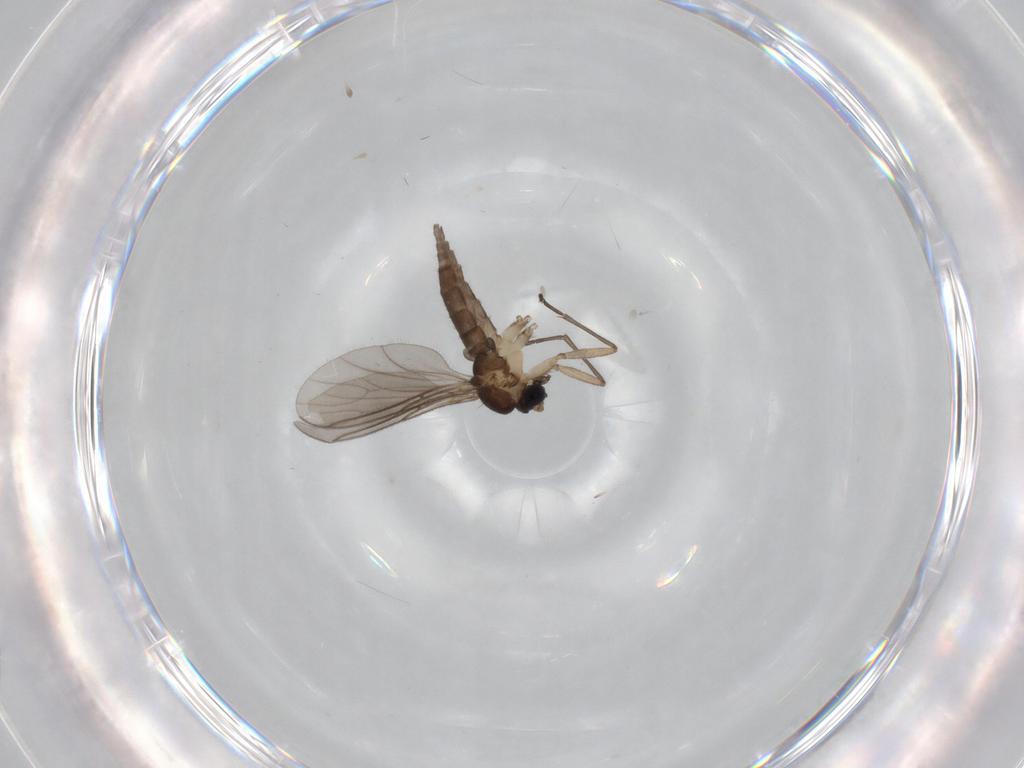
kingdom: Animalia
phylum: Arthropoda
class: Insecta
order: Diptera
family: Sciaridae
